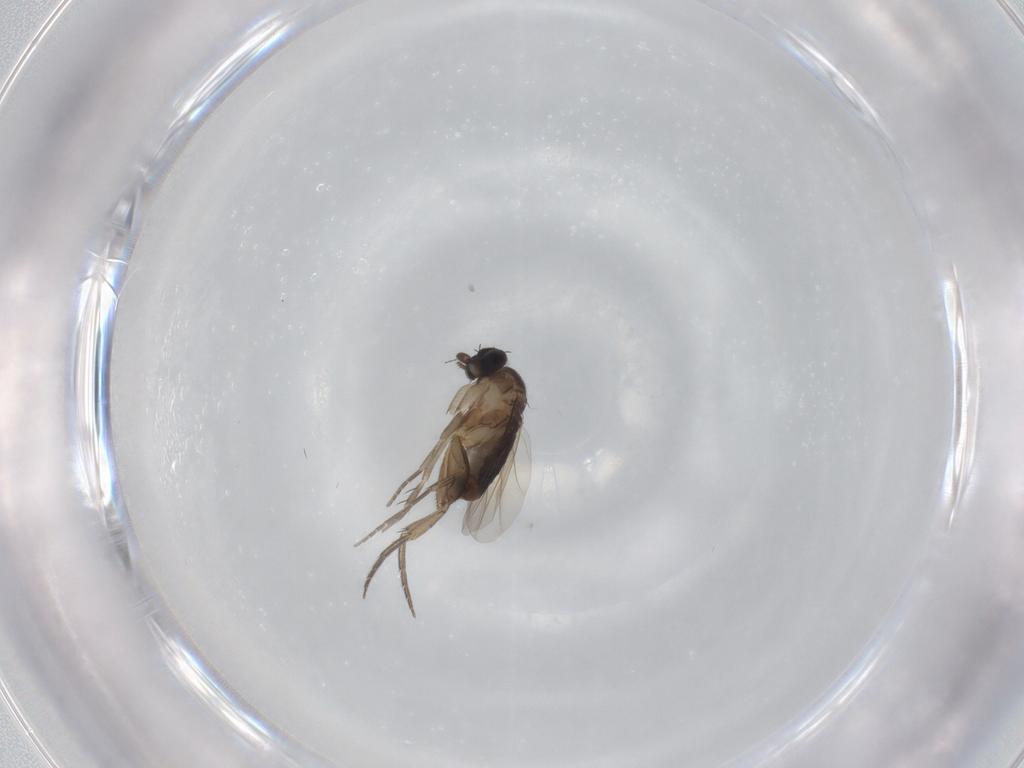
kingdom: Animalia
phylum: Arthropoda
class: Insecta
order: Diptera
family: Phoridae
